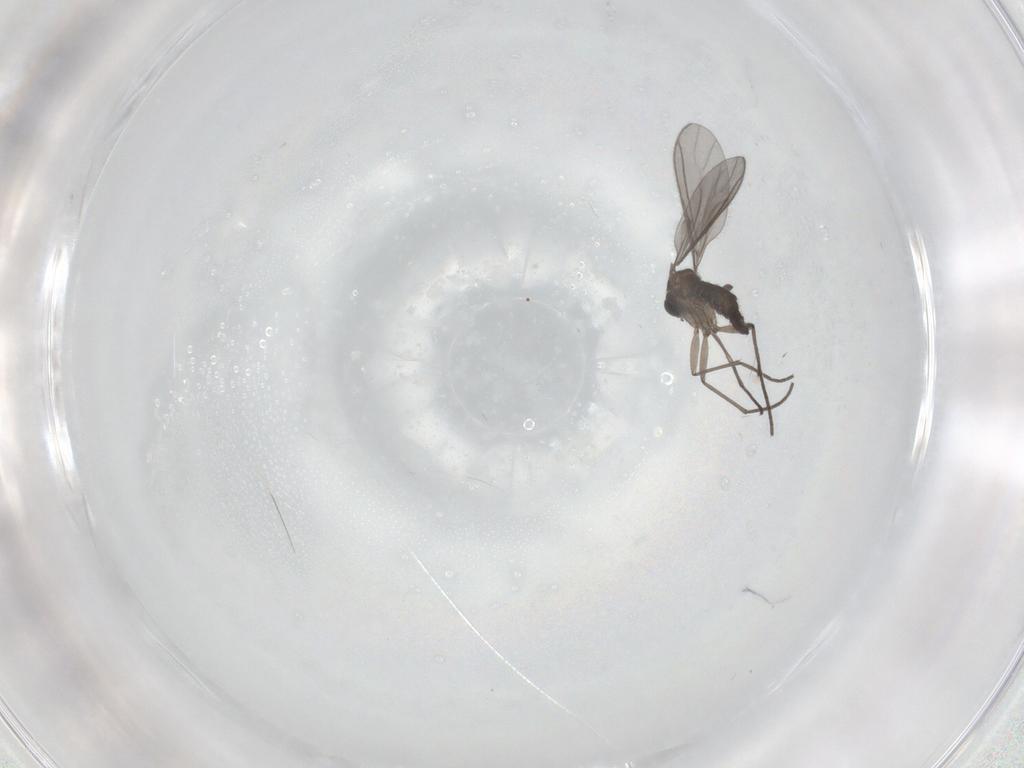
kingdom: Animalia
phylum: Arthropoda
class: Insecta
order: Diptera
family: Sciaridae
